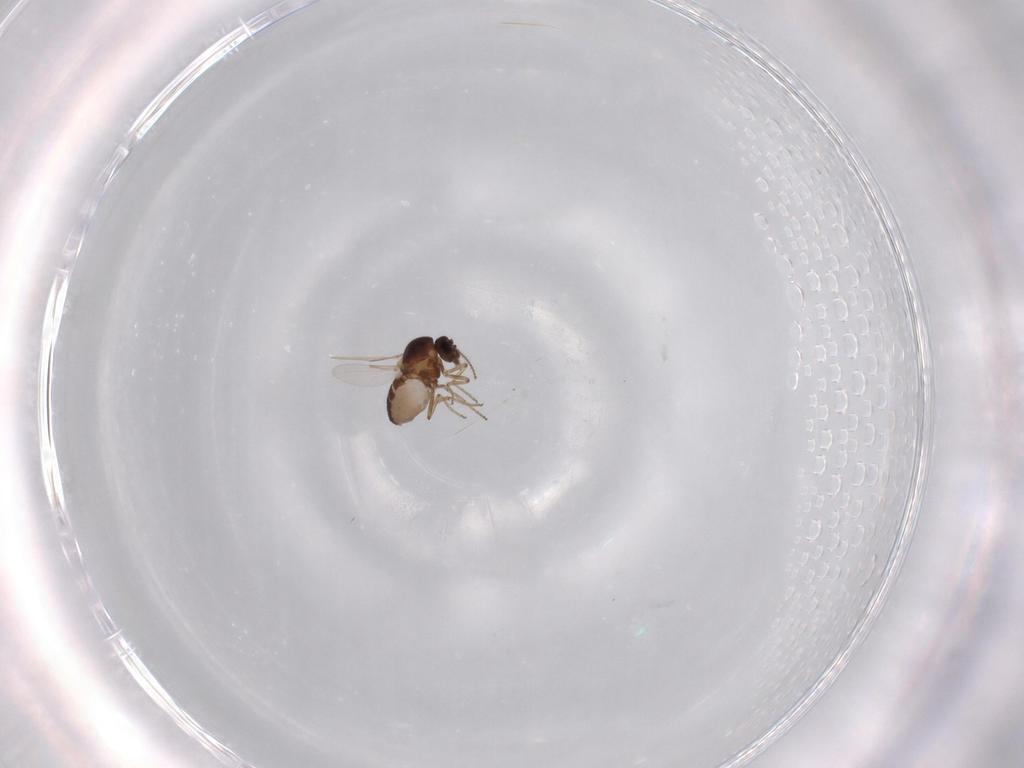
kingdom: Animalia
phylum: Arthropoda
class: Insecta
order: Diptera
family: Ceratopogonidae
